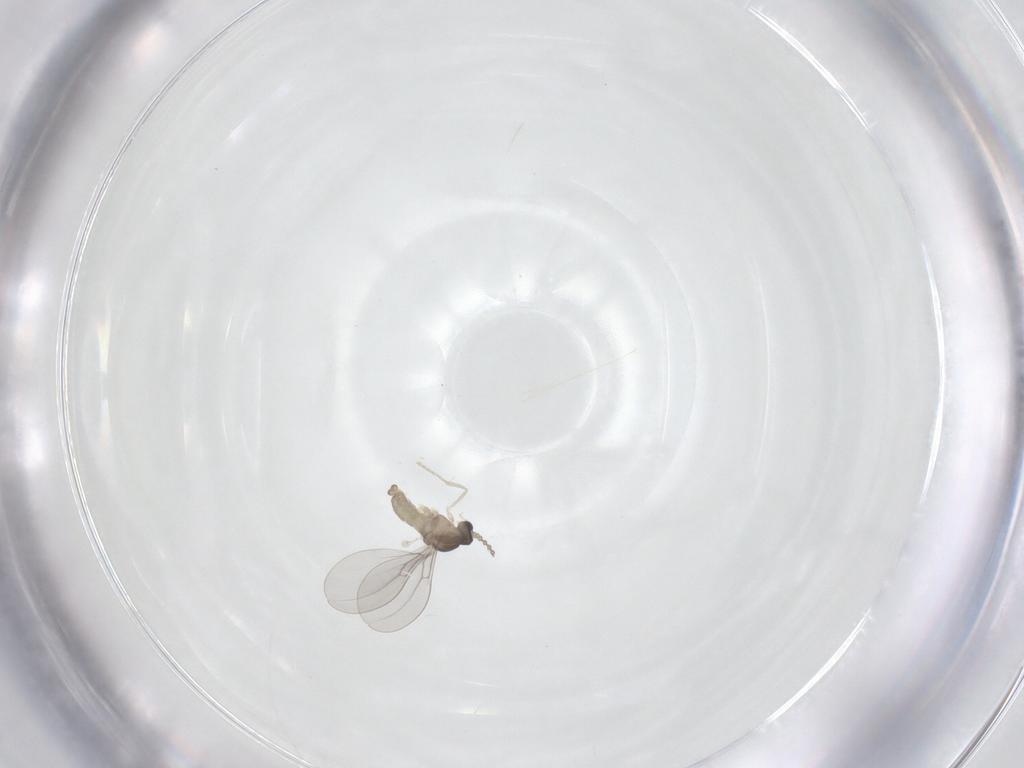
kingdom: Animalia
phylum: Arthropoda
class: Insecta
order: Diptera
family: Cecidomyiidae
